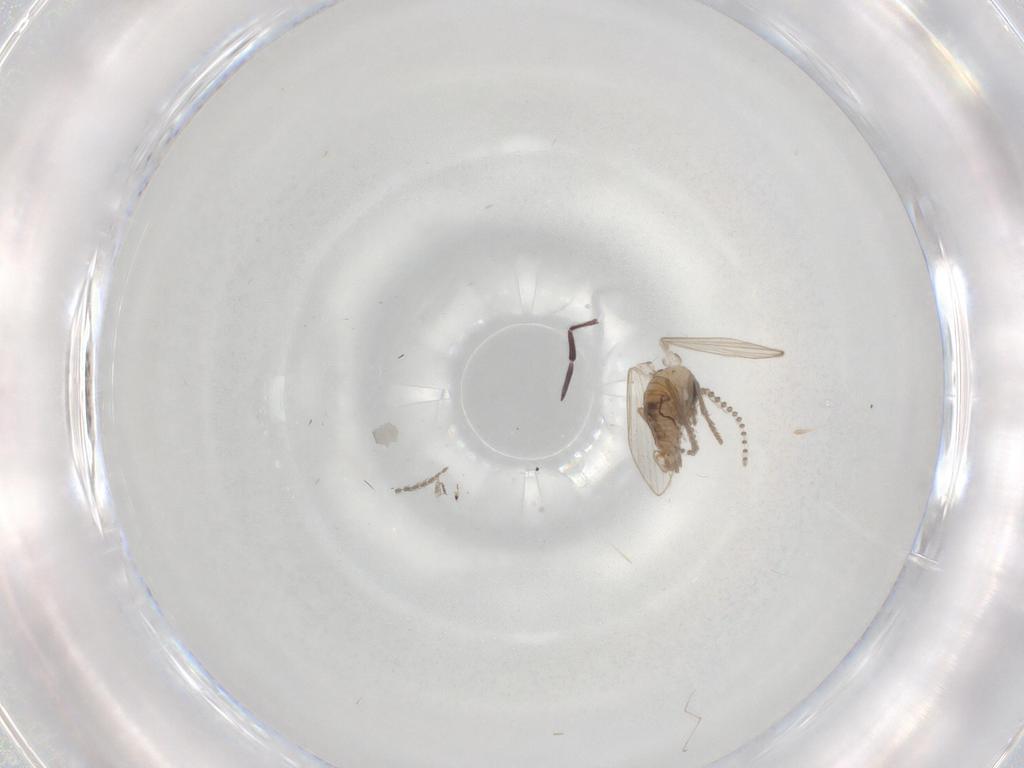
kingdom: Animalia
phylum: Arthropoda
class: Insecta
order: Diptera
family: Psychodidae
